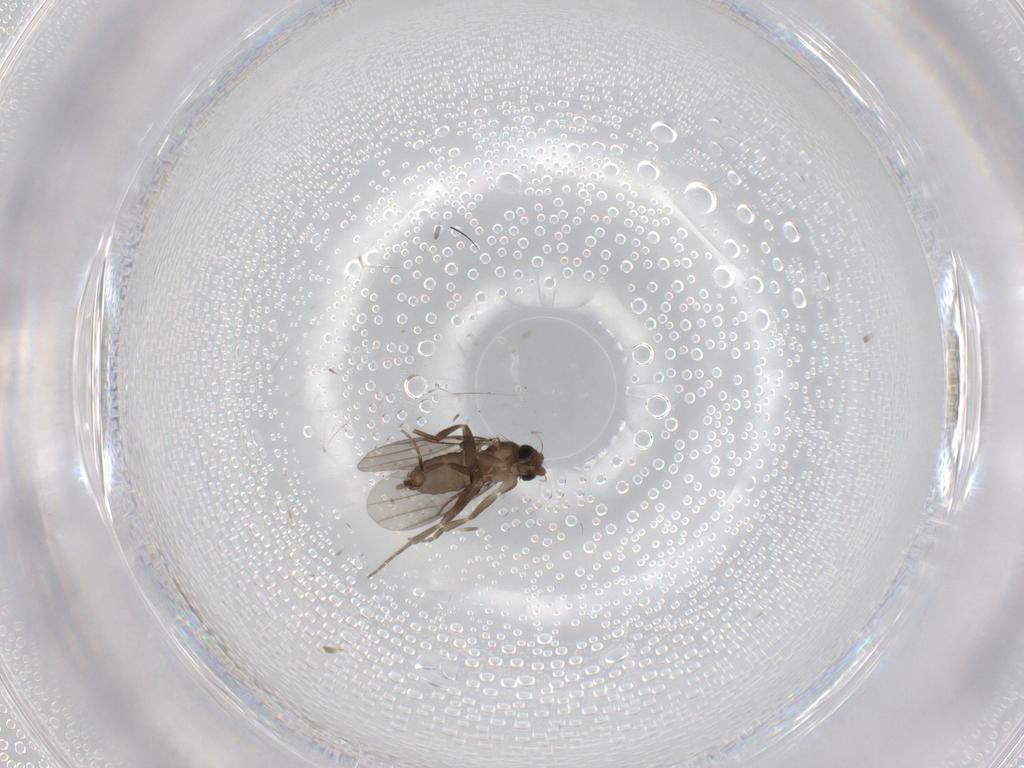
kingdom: Animalia
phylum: Arthropoda
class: Insecta
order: Diptera
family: Phoridae
